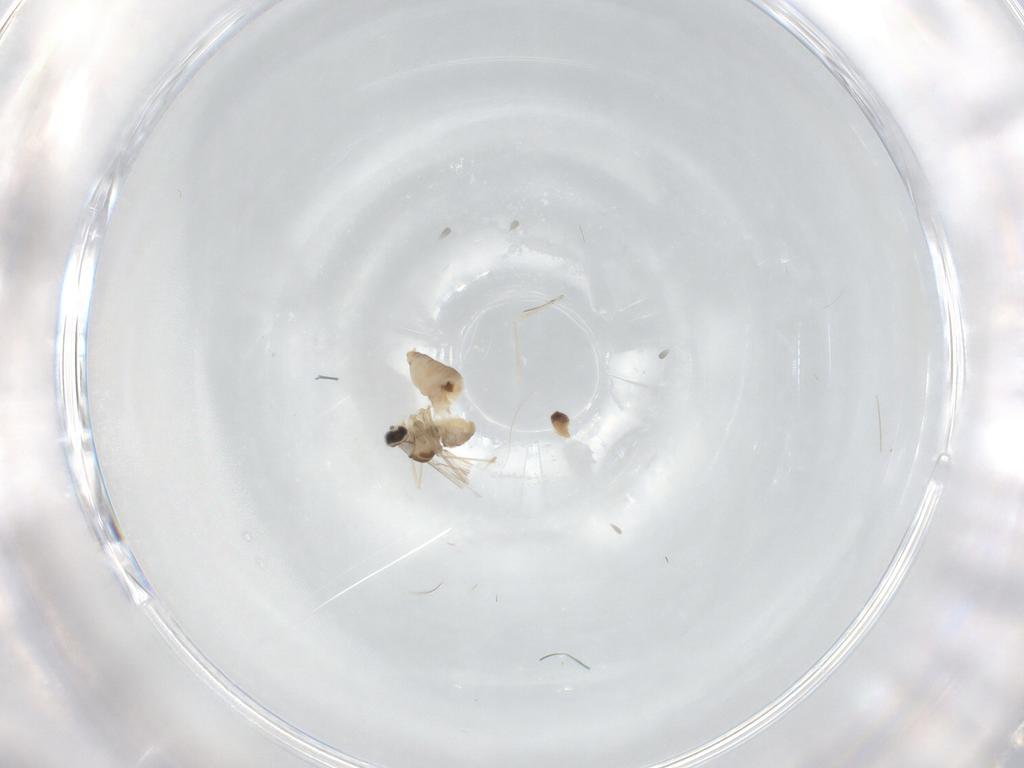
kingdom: Animalia
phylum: Arthropoda
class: Insecta
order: Diptera
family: Cecidomyiidae
